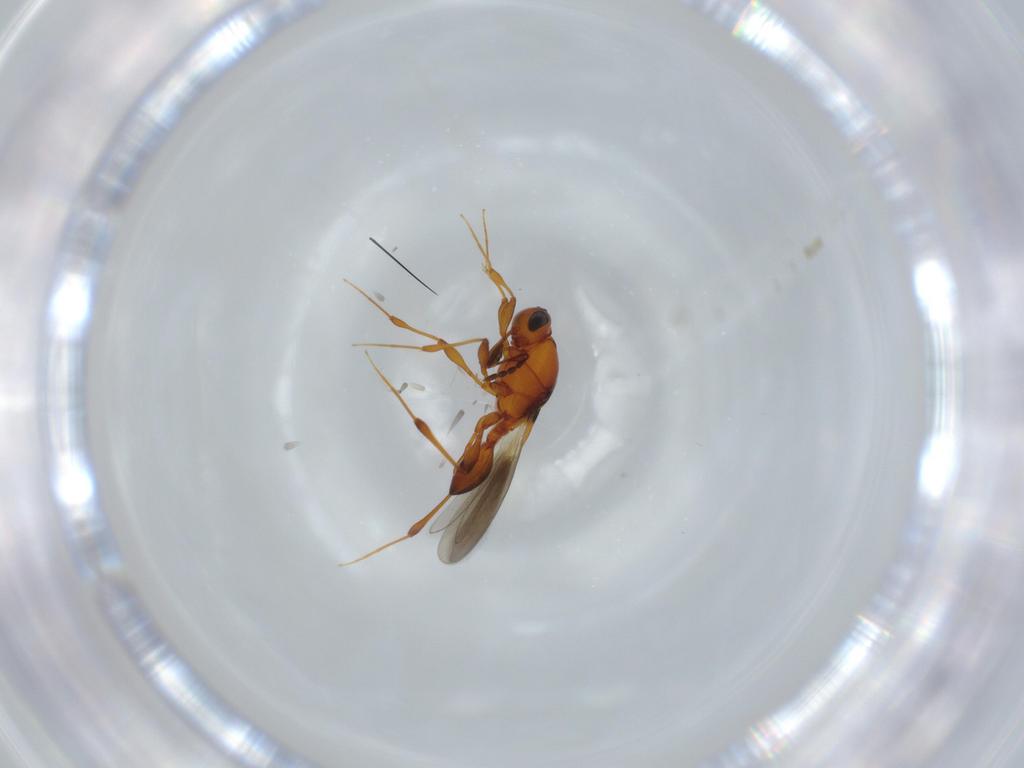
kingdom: Animalia
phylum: Arthropoda
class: Insecta
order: Hymenoptera
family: Platygastridae
